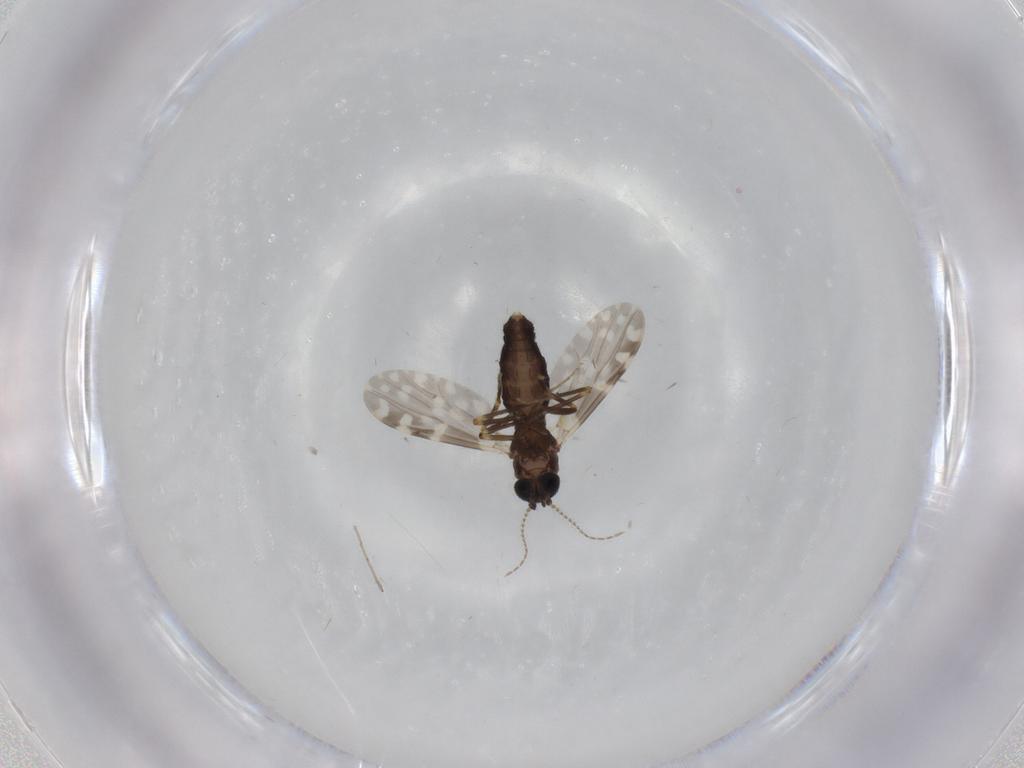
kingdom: Animalia
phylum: Arthropoda
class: Insecta
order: Diptera
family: Ceratopogonidae
